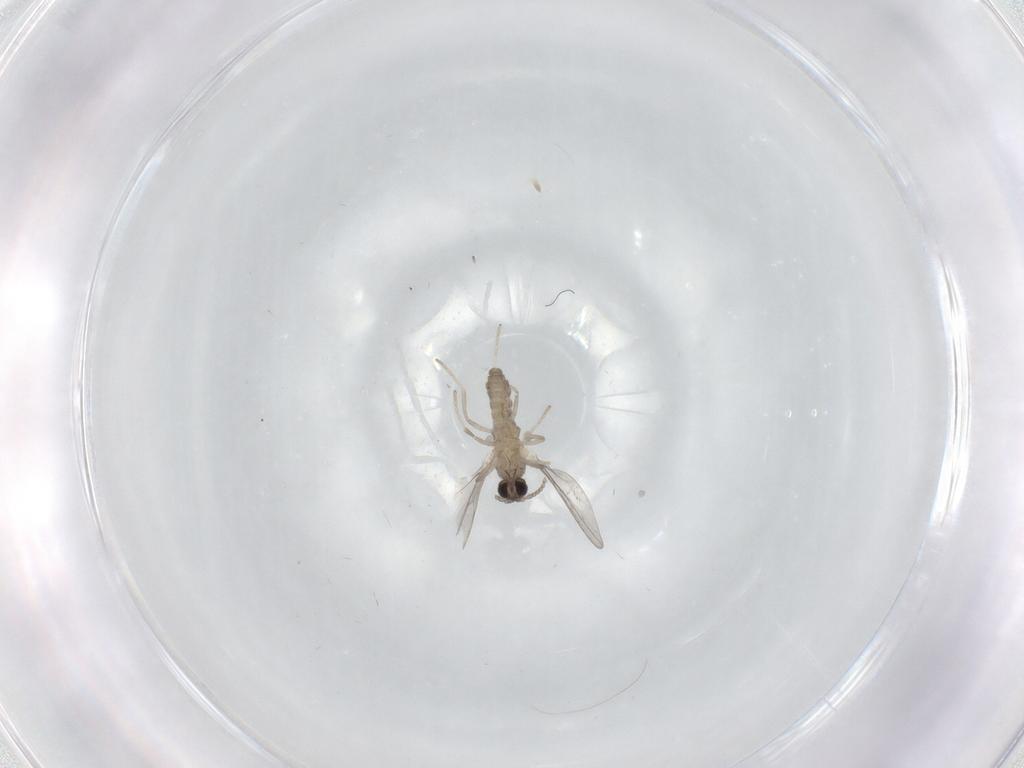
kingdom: Animalia
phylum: Arthropoda
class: Insecta
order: Diptera
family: Cecidomyiidae
